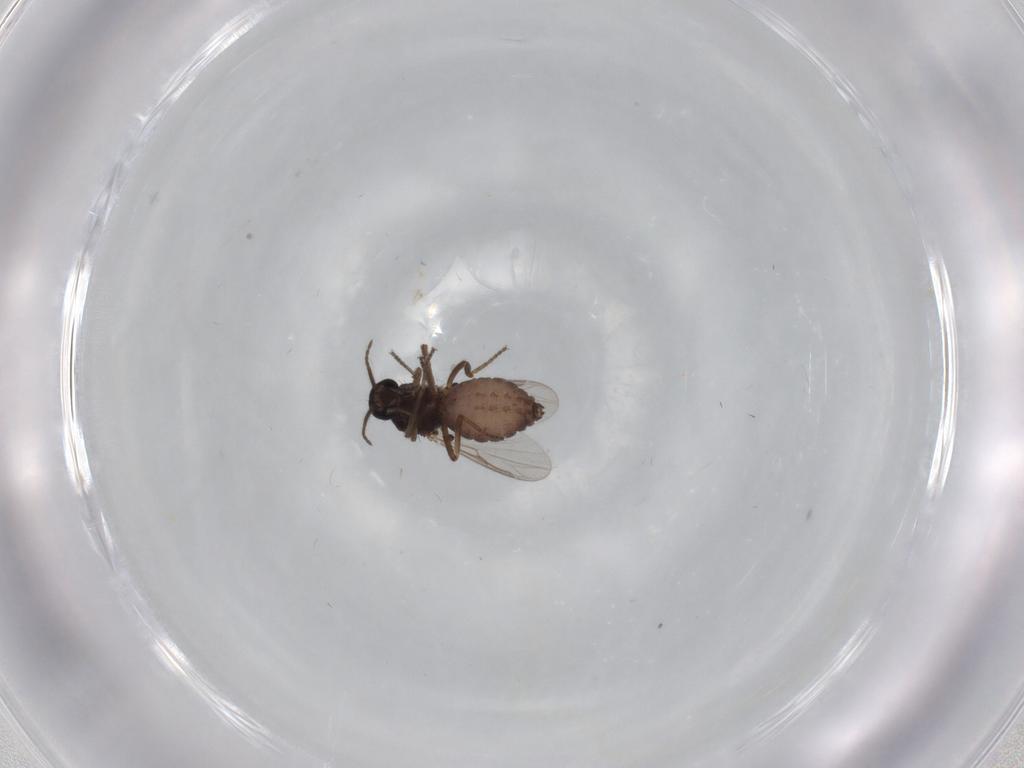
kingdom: Animalia
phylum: Arthropoda
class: Insecta
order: Diptera
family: Ceratopogonidae
